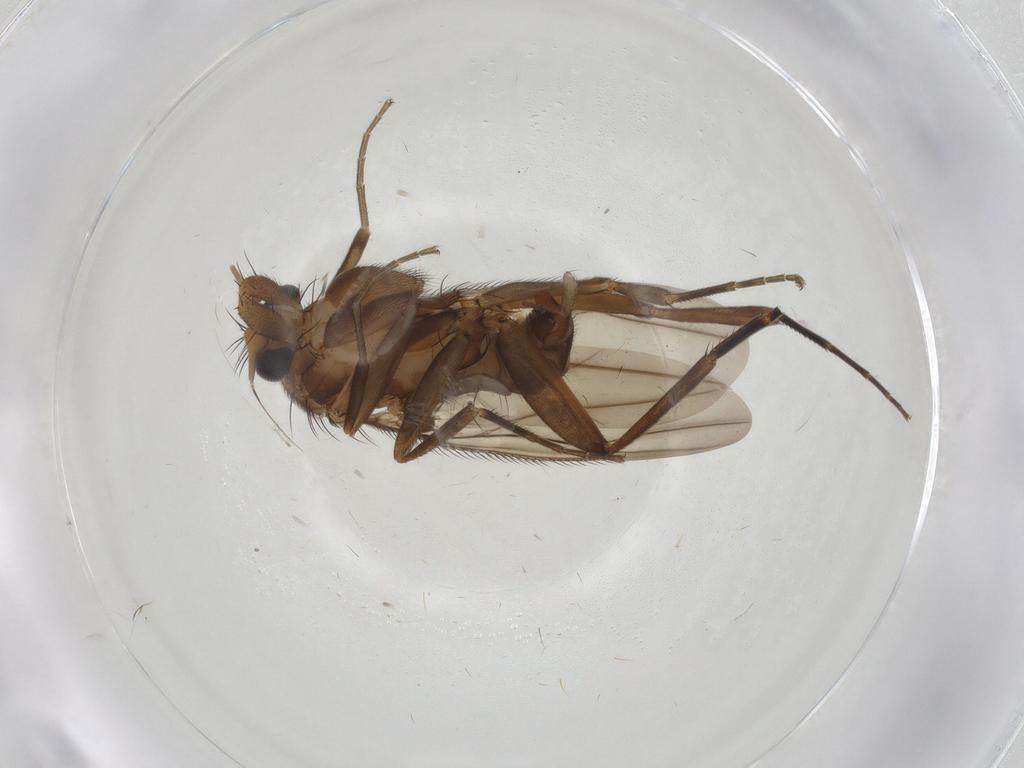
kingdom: Animalia
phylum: Arthropoda
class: Insecta
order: Diptera
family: Phoridae
